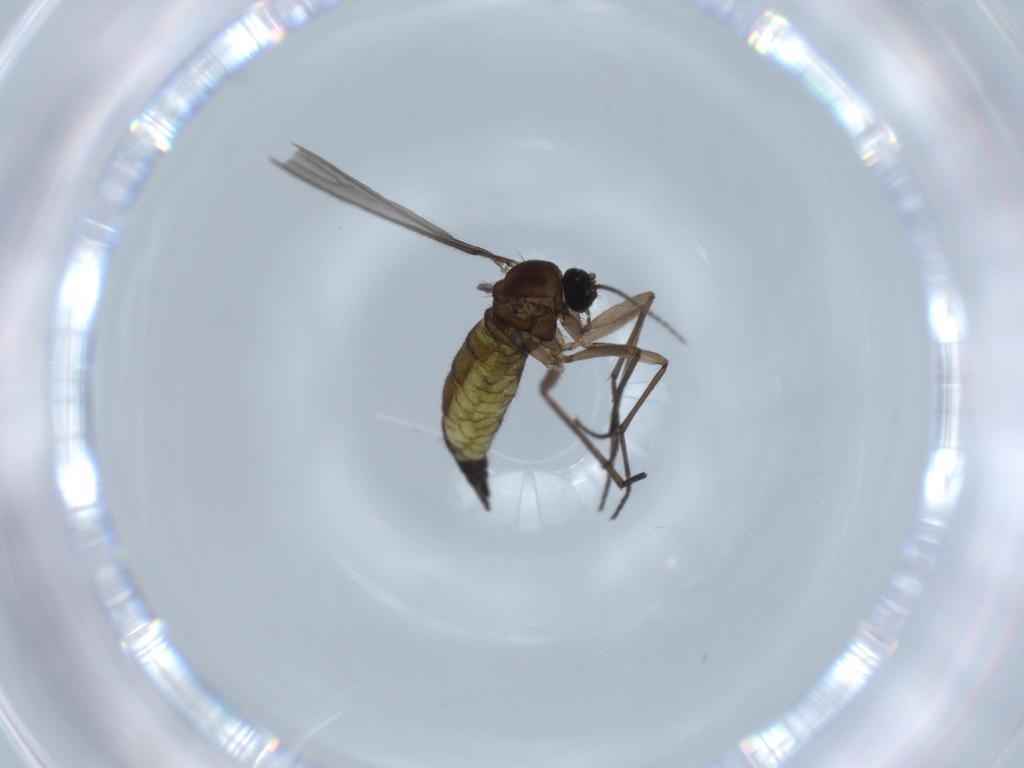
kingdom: Animalia
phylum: Arthropoda
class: Insecta
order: Diptera
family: Sciaridae
